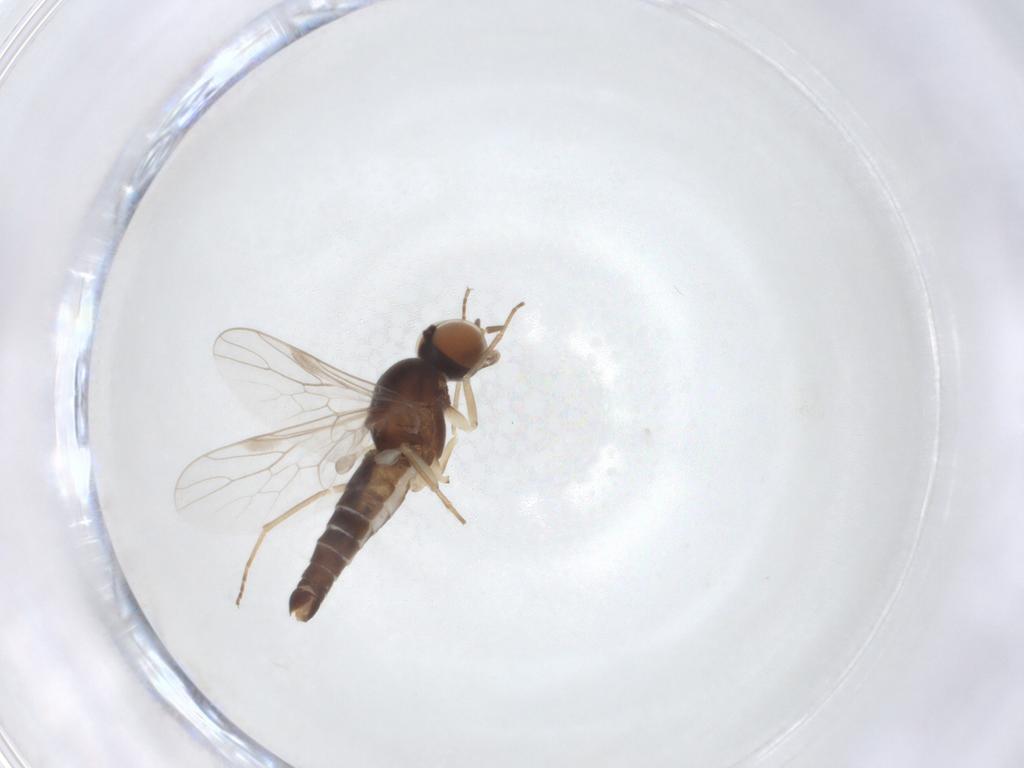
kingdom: Animalia
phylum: Arthropoda
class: Insecta
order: Diptera
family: Scenopinidae
